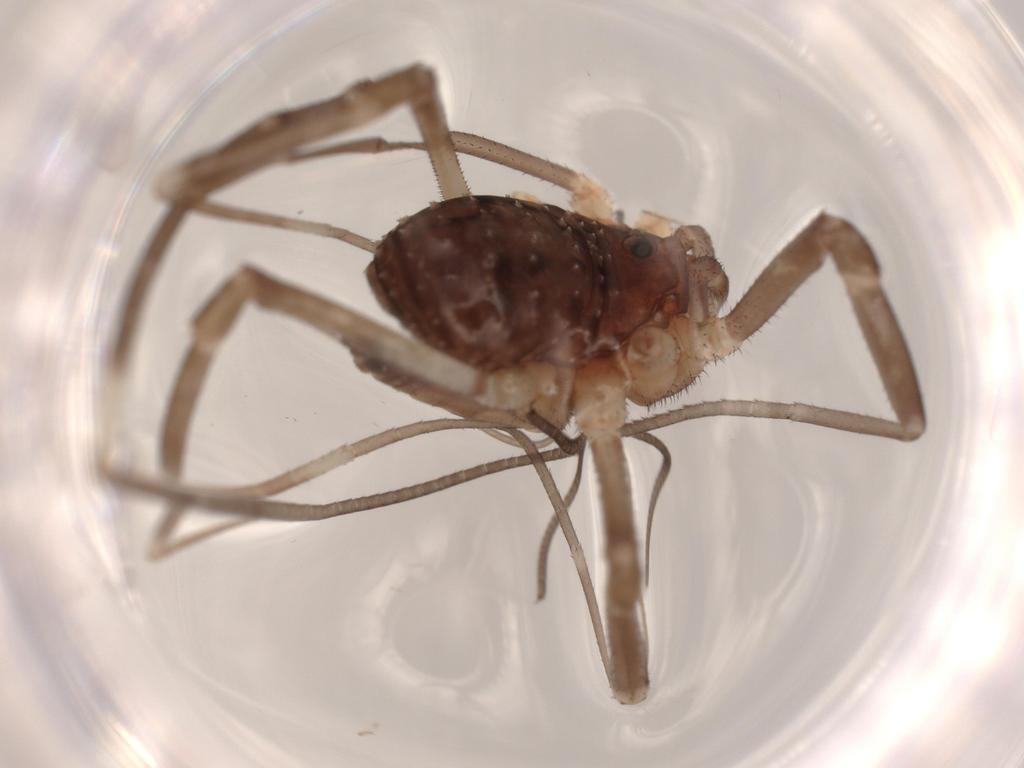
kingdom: Animalia
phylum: Arthropoda
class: Arachnida
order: Opiliones
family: Phalangiidae
